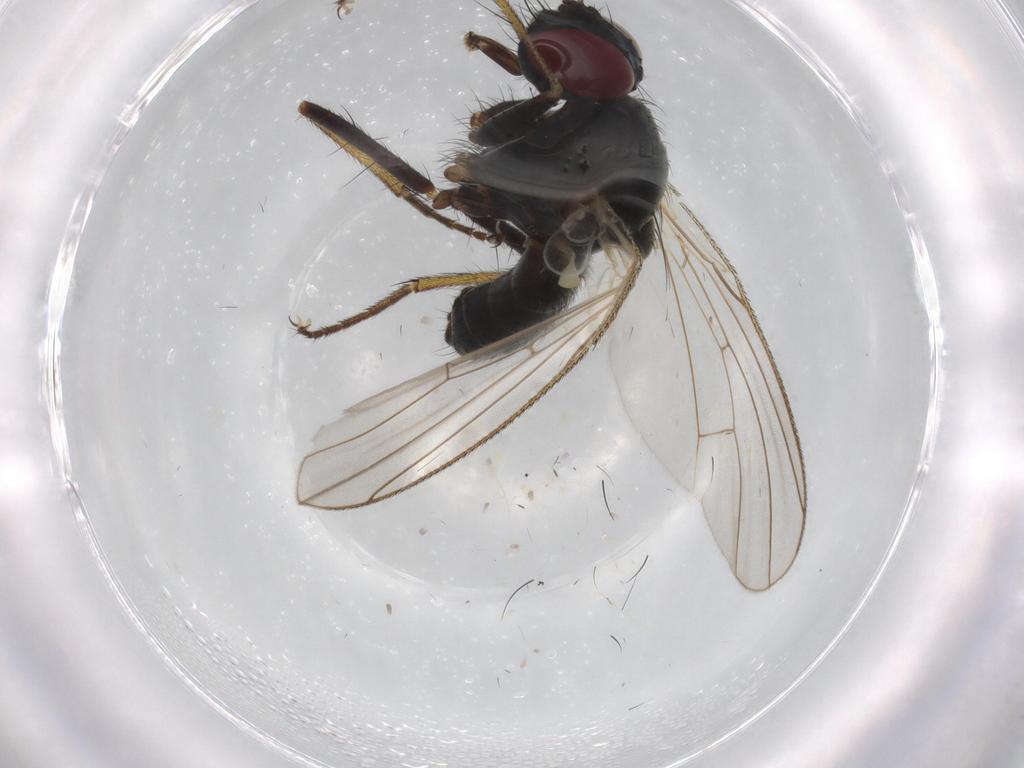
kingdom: Animalia
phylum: Arthropoda
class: Insecta
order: Diptera
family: Muscidae
